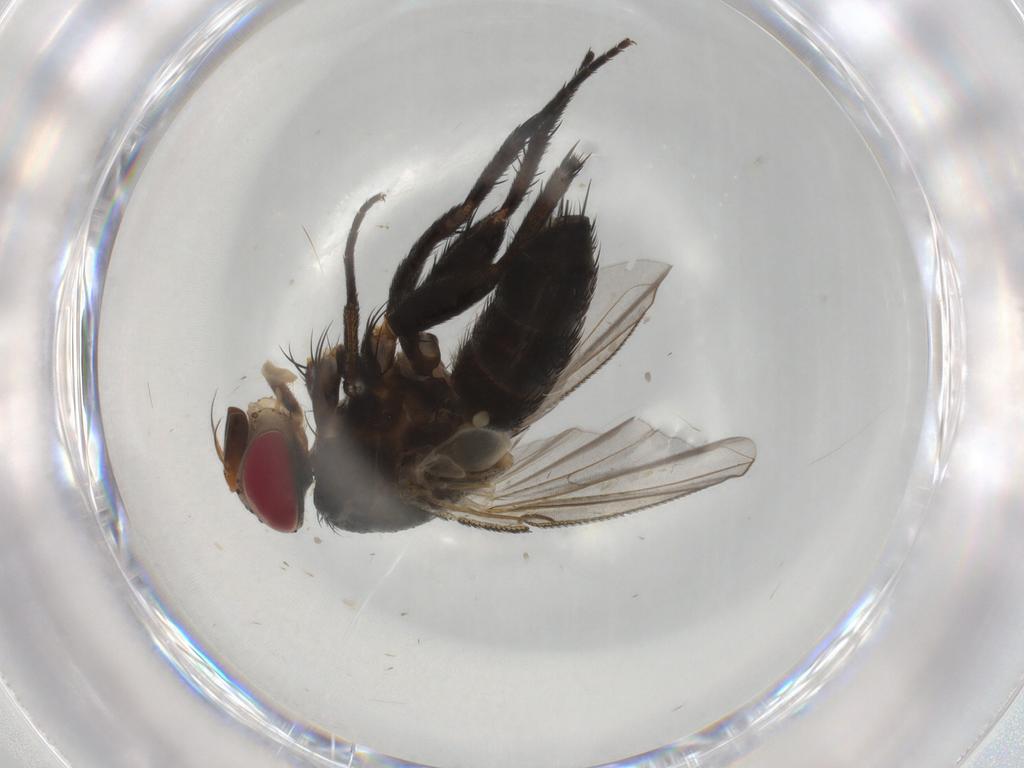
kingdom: Animalia
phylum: Arthropoda
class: Insecta
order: Diptera
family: Tachinidae
